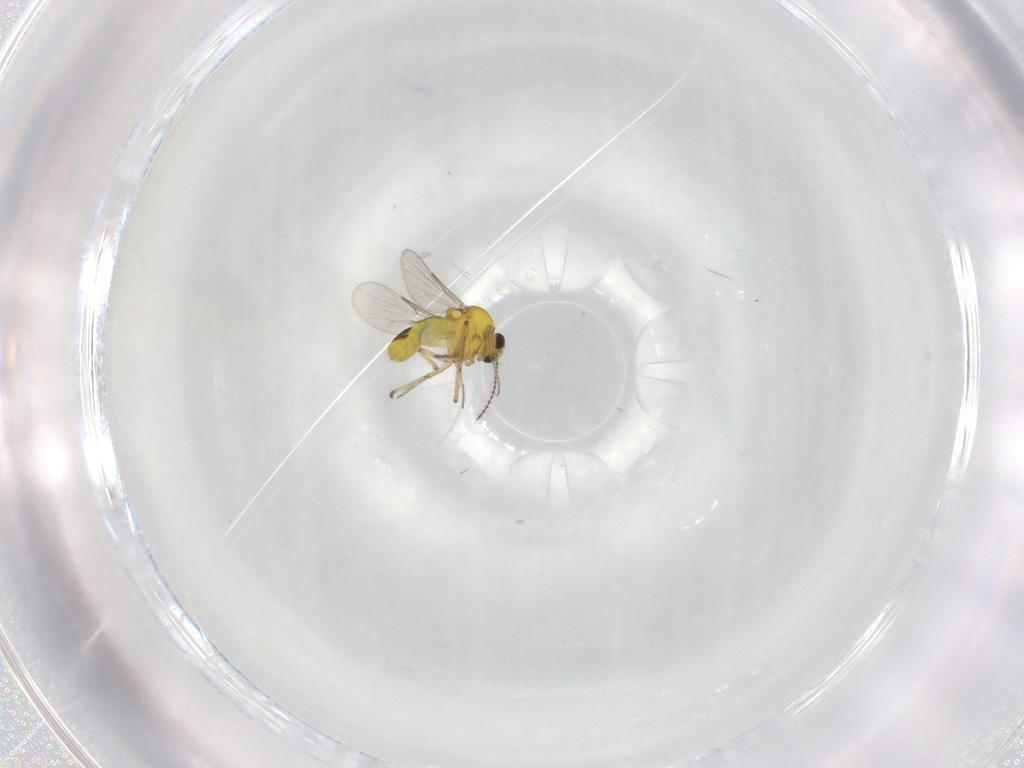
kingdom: Animalia
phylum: Arthropoda
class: Insecta
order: Diptera
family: Ceratopogonidae
